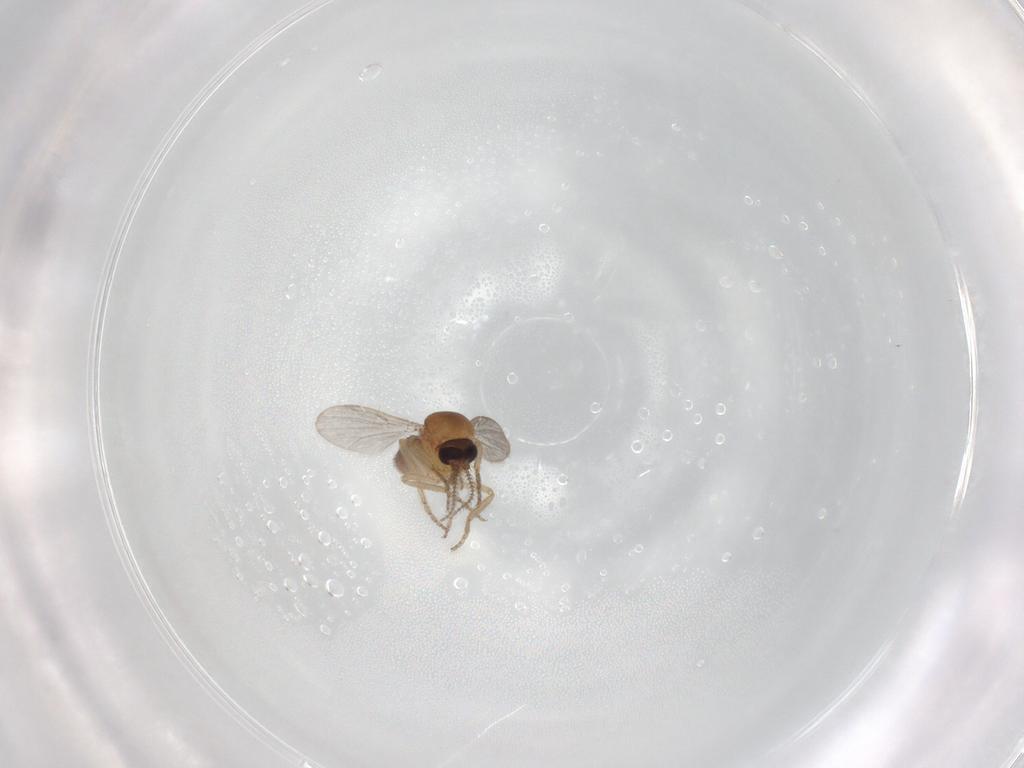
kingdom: Animalia
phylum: Arthropoda
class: Insecta
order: Diptera
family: Ceratopogonidae
